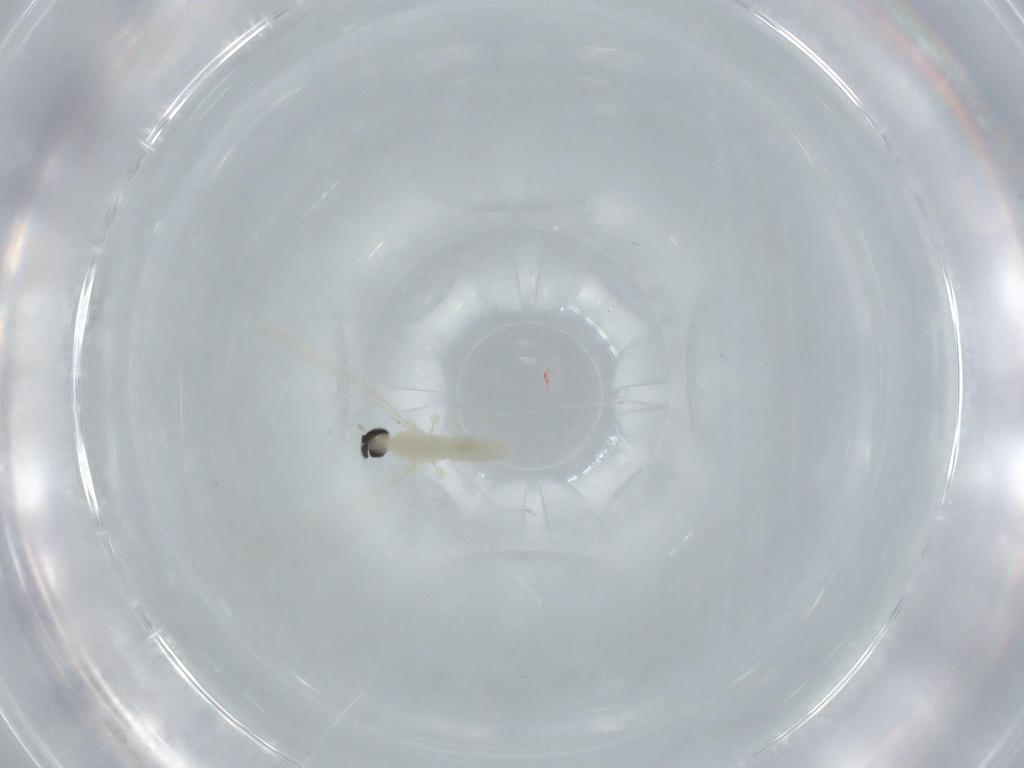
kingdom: Animalia
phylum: Arthropoda
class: Insecta
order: Diptera
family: Cecidomyiidae
